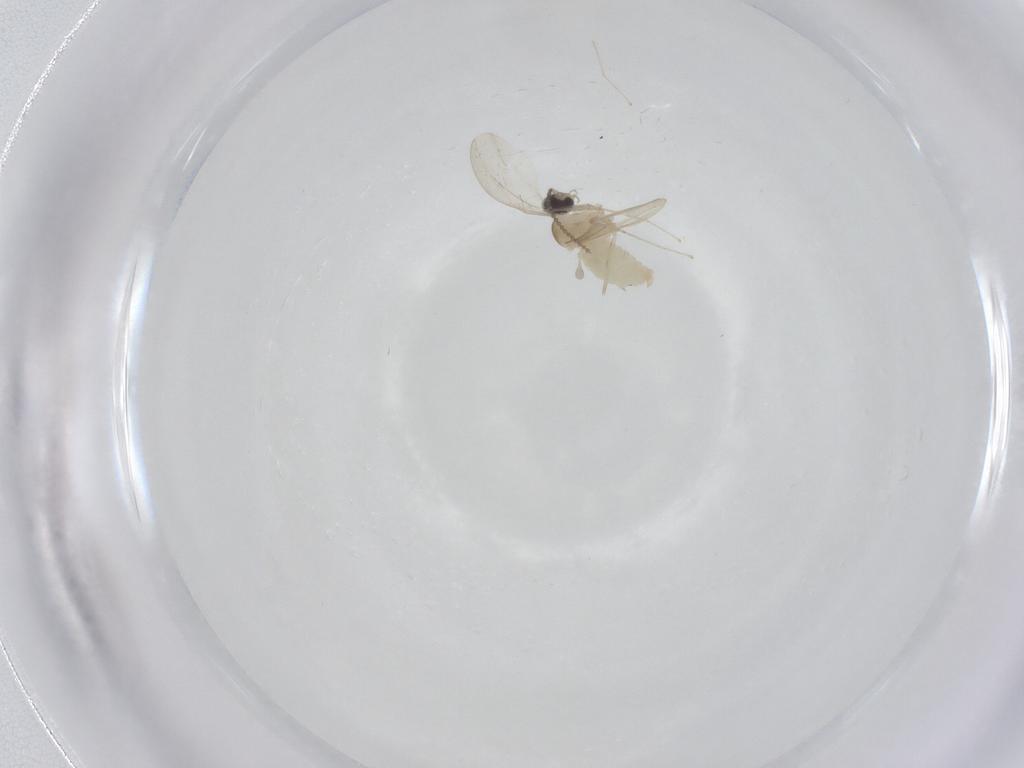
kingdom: Animalia
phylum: Arthropoda
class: Insecta
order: Diptera
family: Cecidomyiidae
